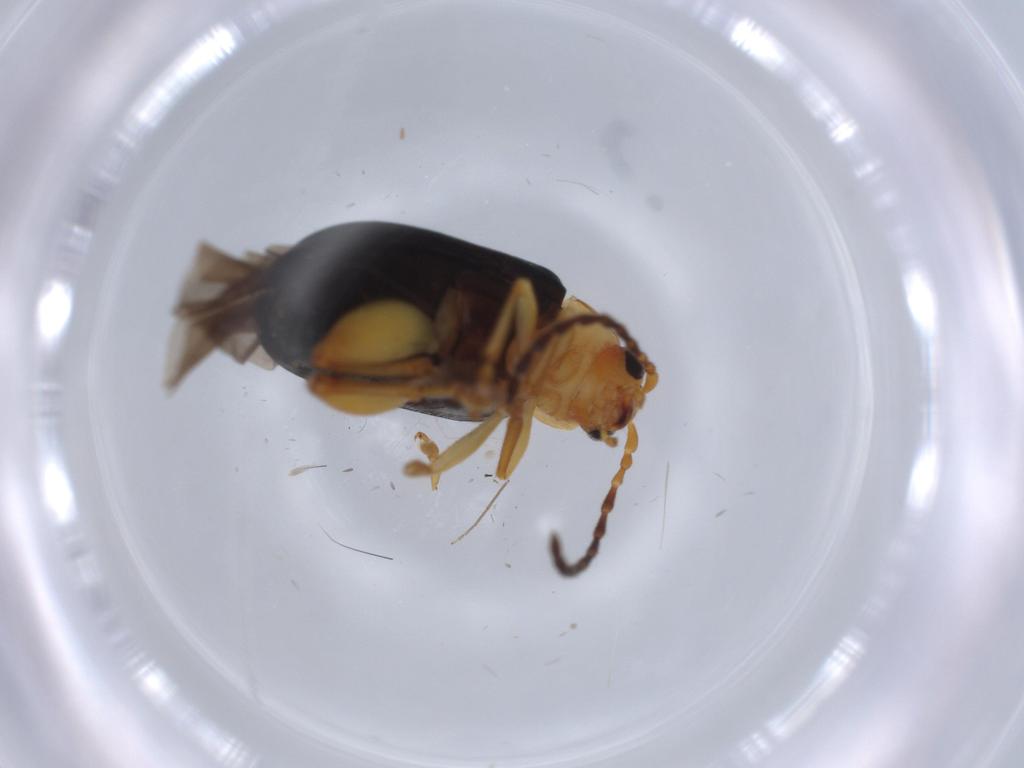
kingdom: Animalia
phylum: Arthropoda
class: Insecta
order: Coleoptera
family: Chrysomelidae
